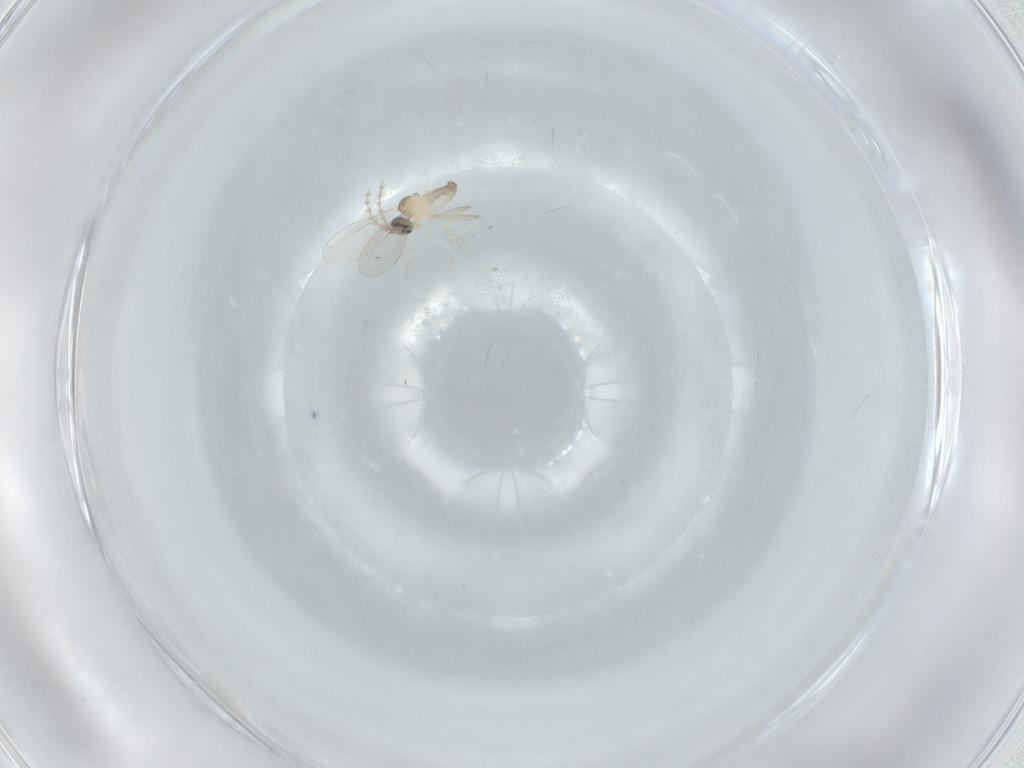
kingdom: Animalia
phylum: Arthropoda
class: Insecta
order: Diptera
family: Cecidomyiidae
